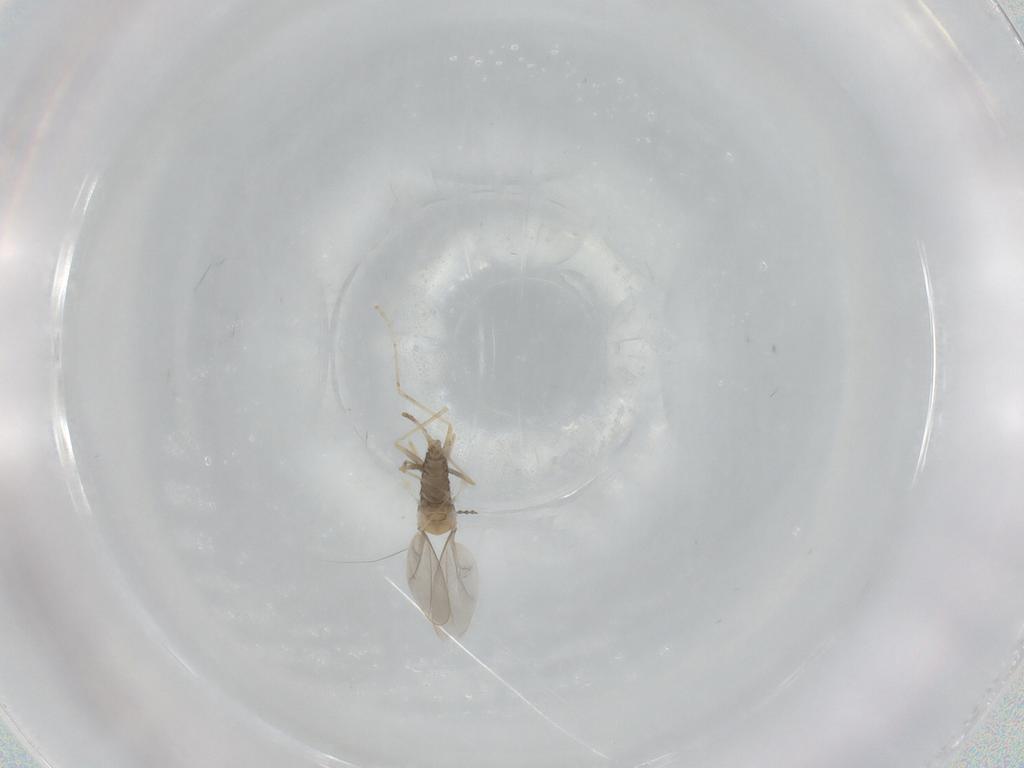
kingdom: Animalia
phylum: Arthropoda
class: Insecta
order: Diptera
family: Cecidomyiidae
